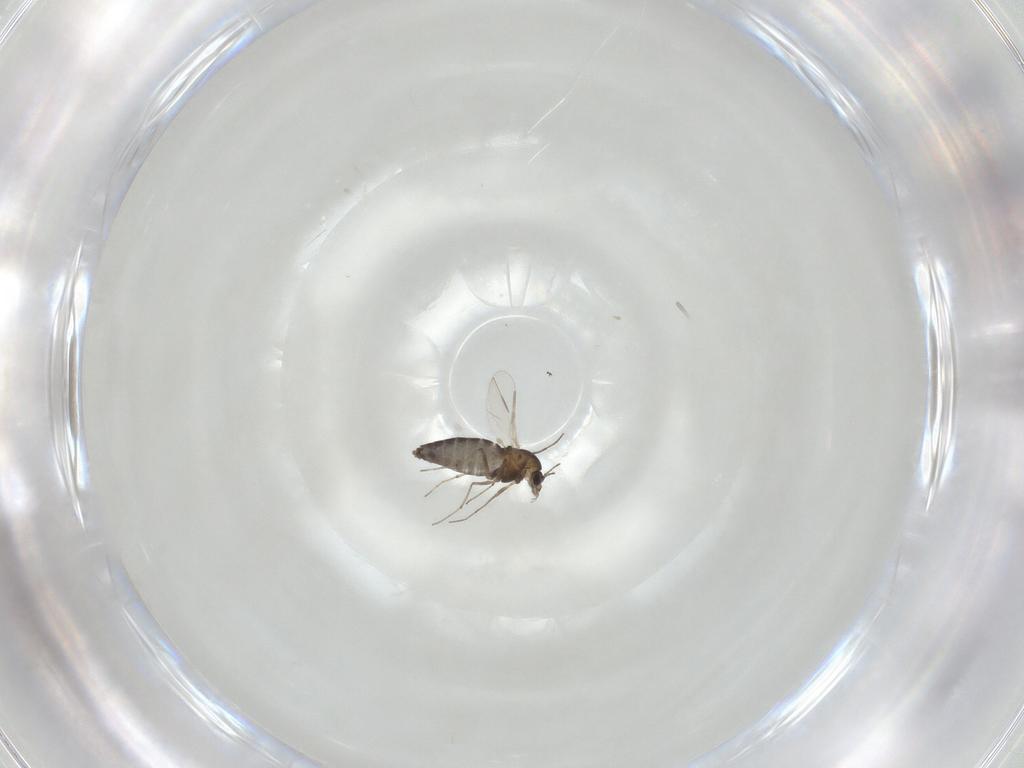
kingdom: Animalia
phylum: Arthropoda
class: Insecta
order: Diptera
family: Chironomidae
